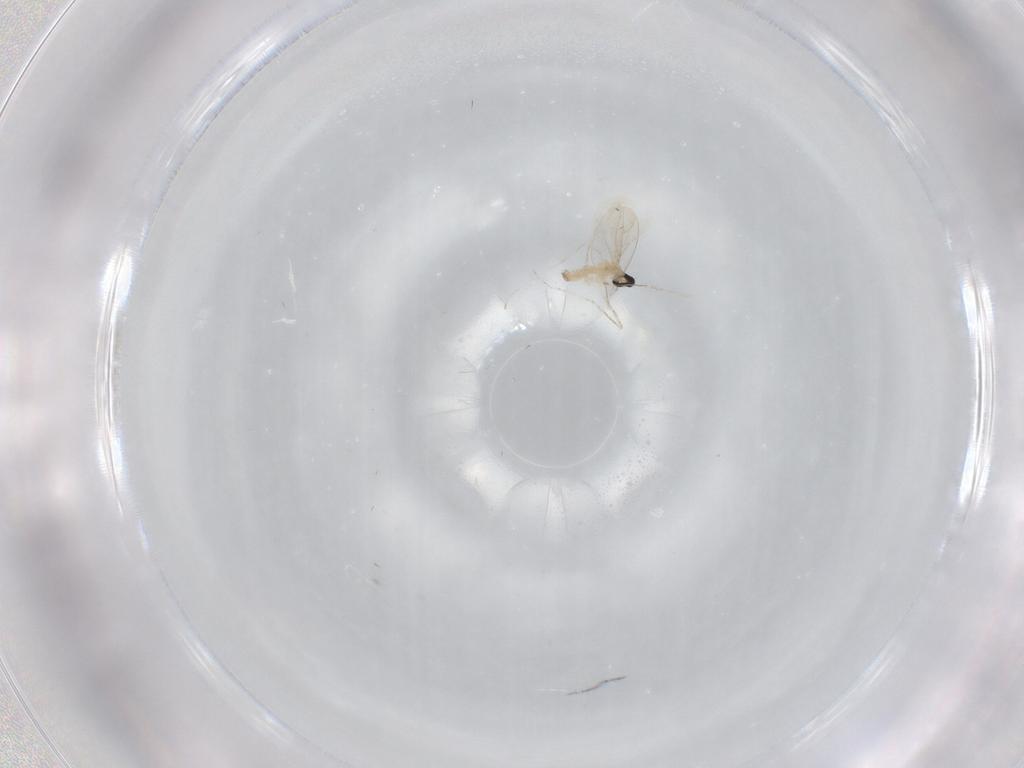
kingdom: Animalia
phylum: Arthropoda
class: Insecta
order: Diptera
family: Cecidomyiidae
